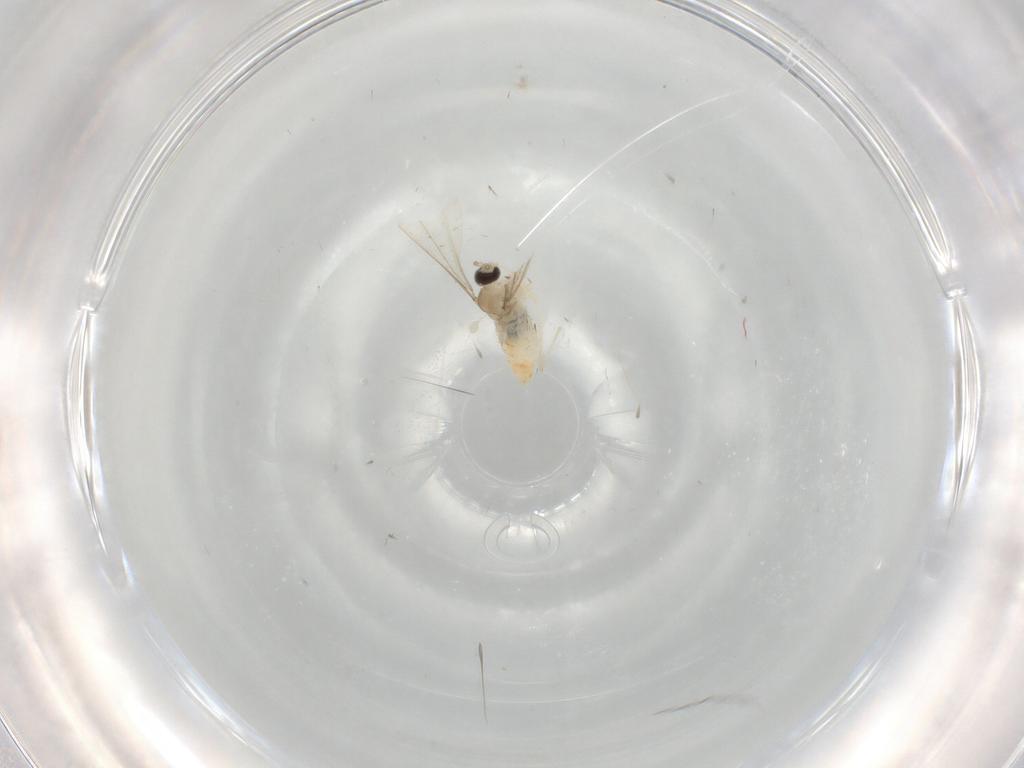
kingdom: Animalia
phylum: Arthropoda
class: Insecta
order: Diptera
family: Cecidomyiidae
